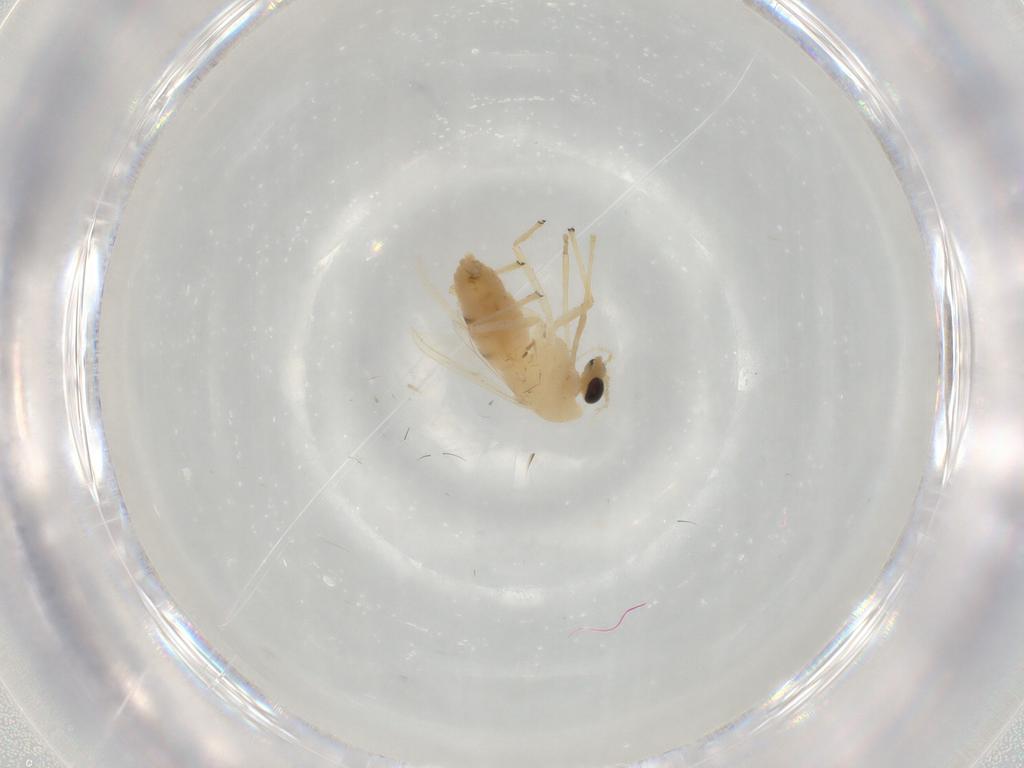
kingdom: Animalia
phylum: Arthropoda
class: Insecta
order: Diptera
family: Chironomidae
